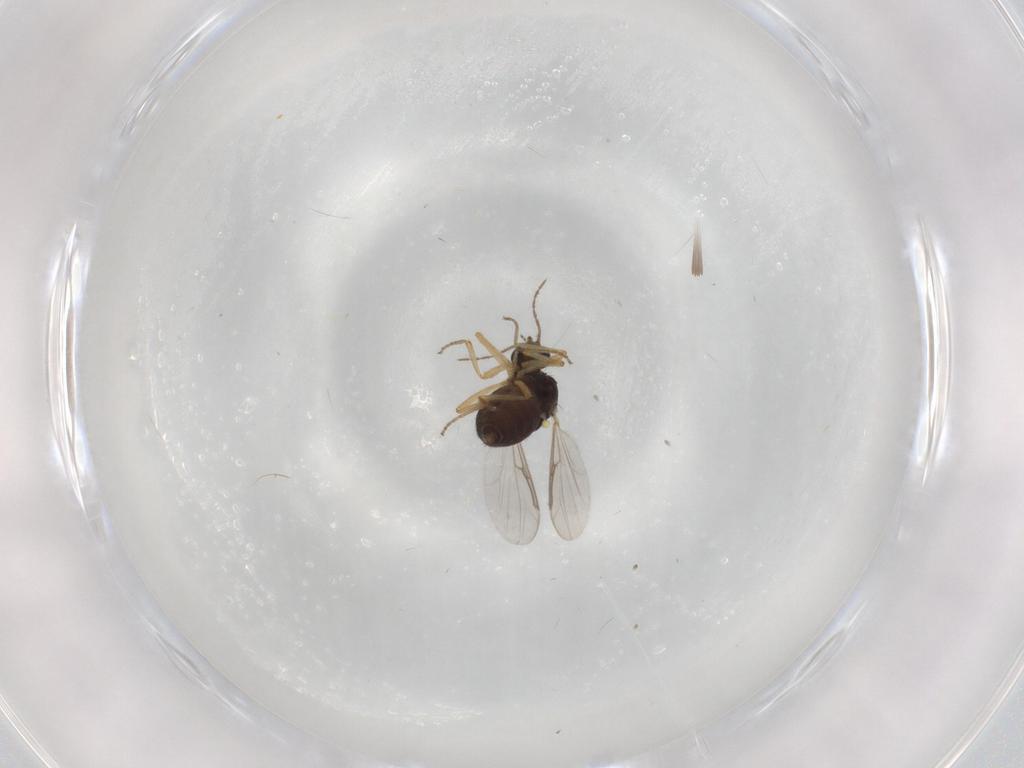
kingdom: Animalia
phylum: Arthropoda
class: Insecta
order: Diptera
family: Ceratopogonidae
